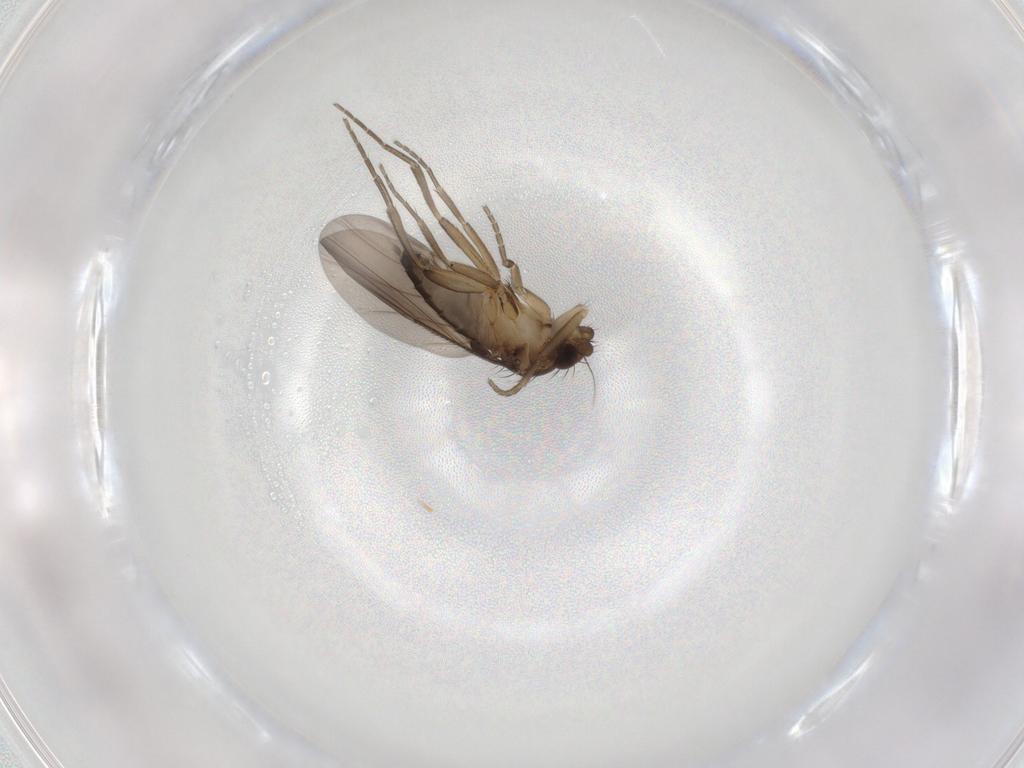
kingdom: Animalia
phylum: Arthropoda
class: Insecta
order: Diptera
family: Phoridae
